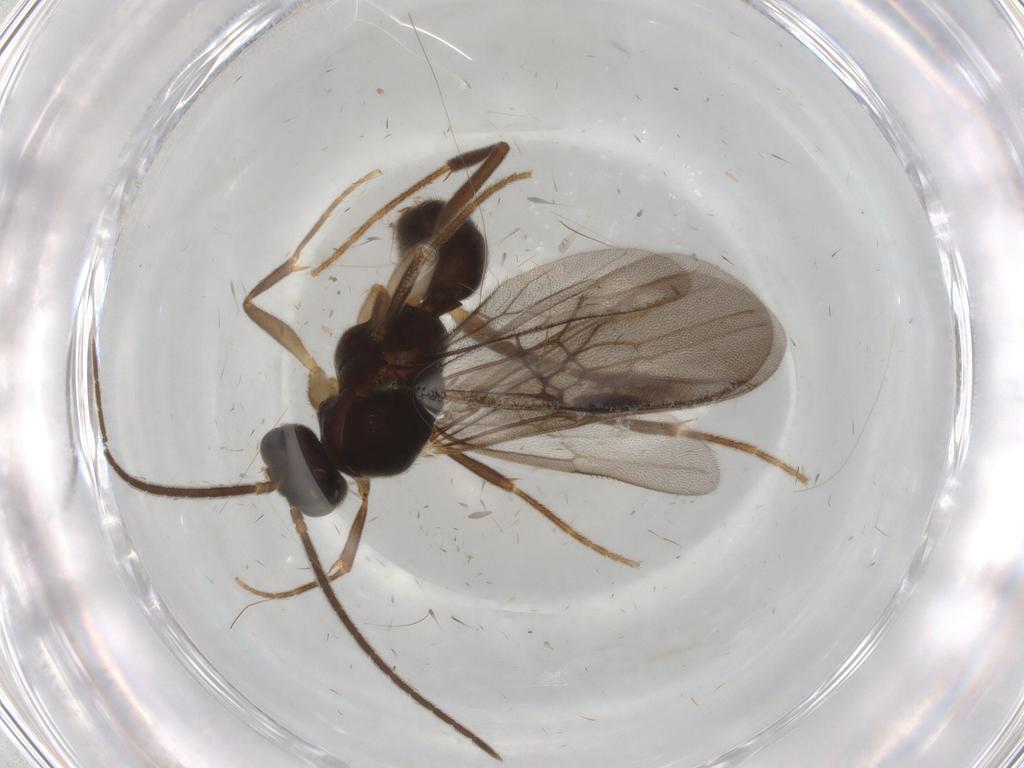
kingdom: Animalia
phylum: Arthropoda
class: Insecta
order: Hymenoptera
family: Formicidae
